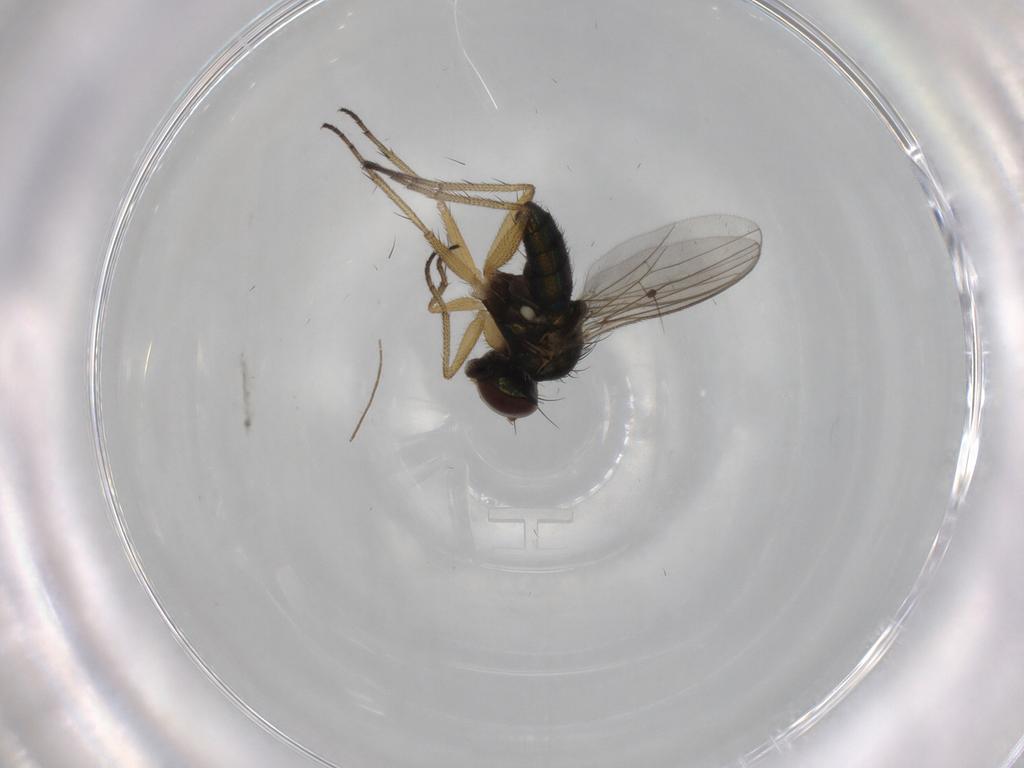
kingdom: Animalia
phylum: Arthropoda
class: Insecta
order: Diptera
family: Dolichopodidae
